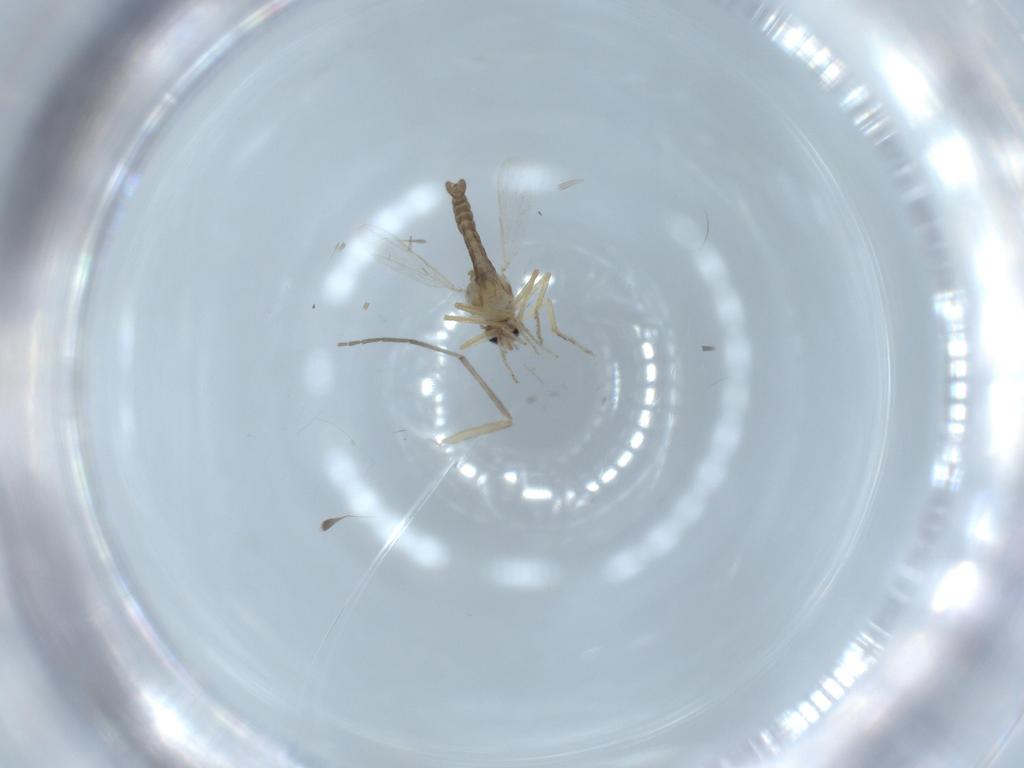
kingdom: Animalia
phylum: Arthropoda
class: Insecta
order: Diptera
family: Ceratopogonidae
